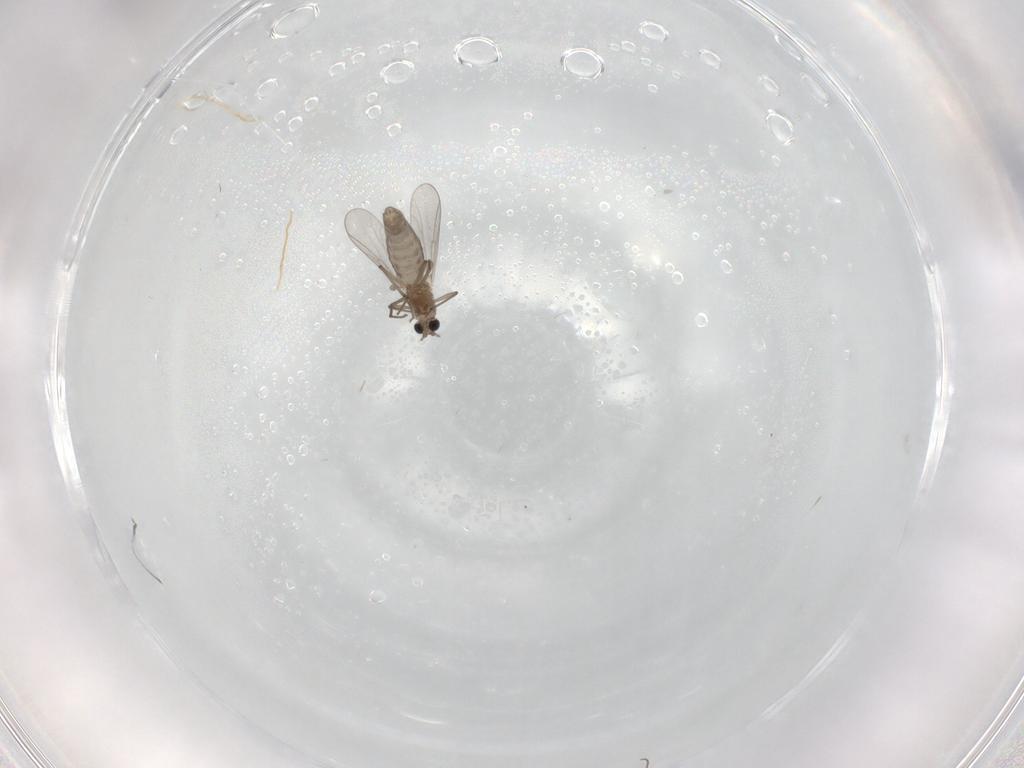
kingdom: Animalia
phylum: Arthropoda
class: Insecta
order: Diptera
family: Chironomidae
